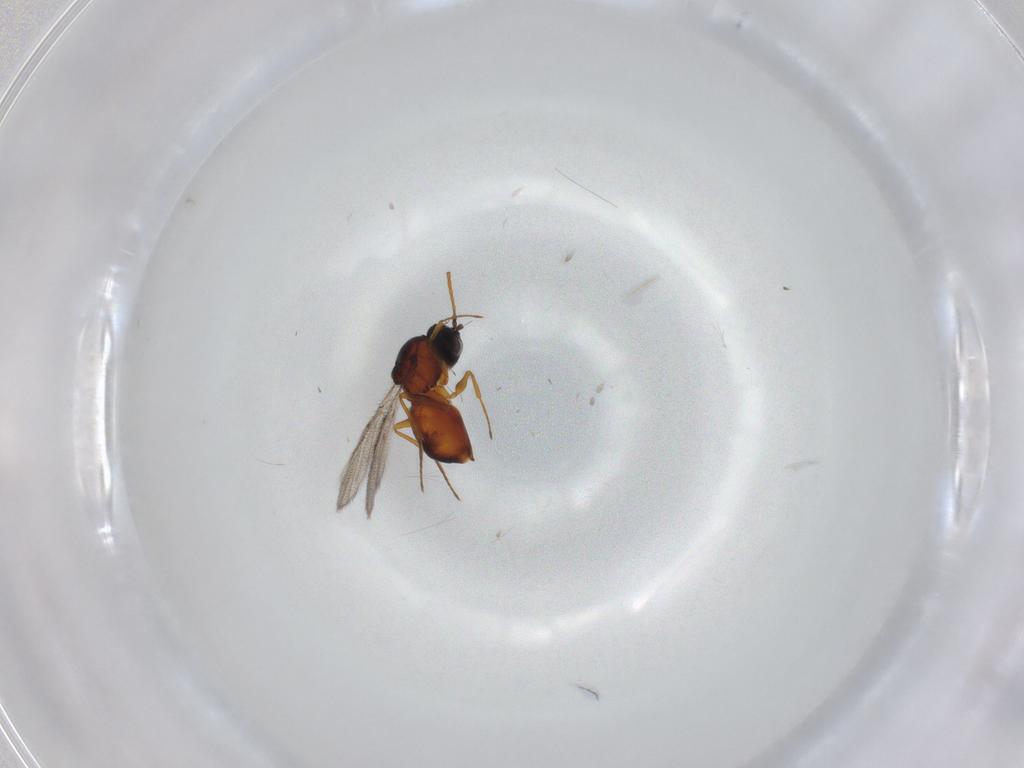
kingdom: Animalia
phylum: Arthropoda
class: Insecta
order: Hymenoptera
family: Figitidae
